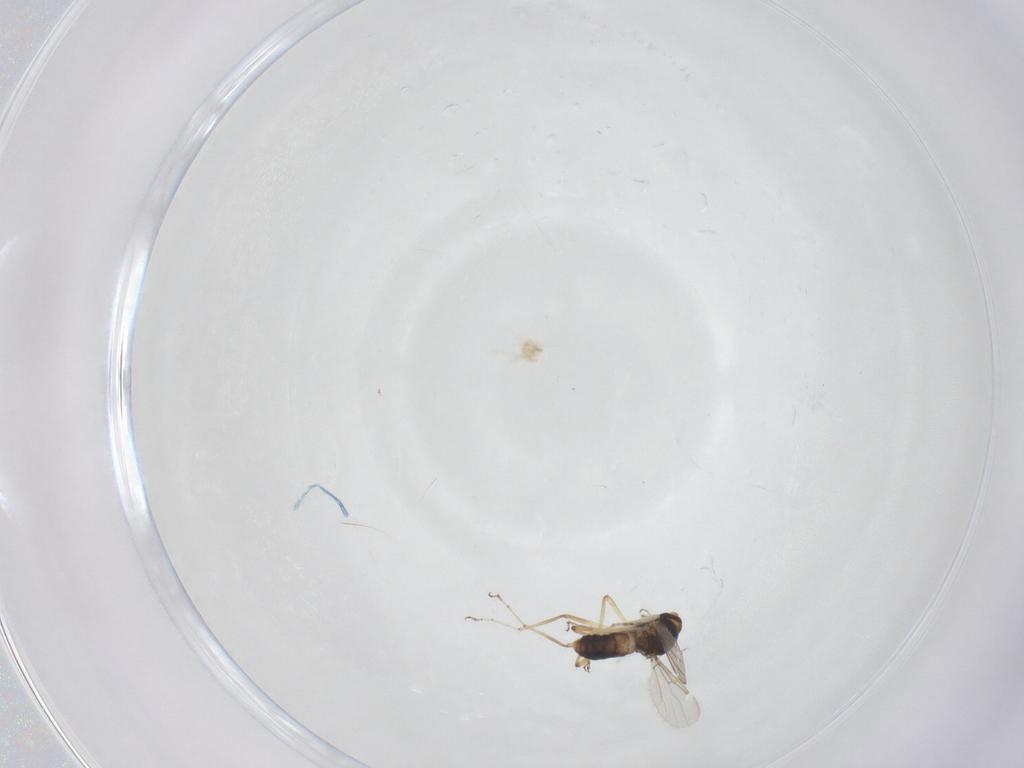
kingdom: Animalia
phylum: Arthropoda
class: Insecta
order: Diptera
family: Ceratopogonidae
